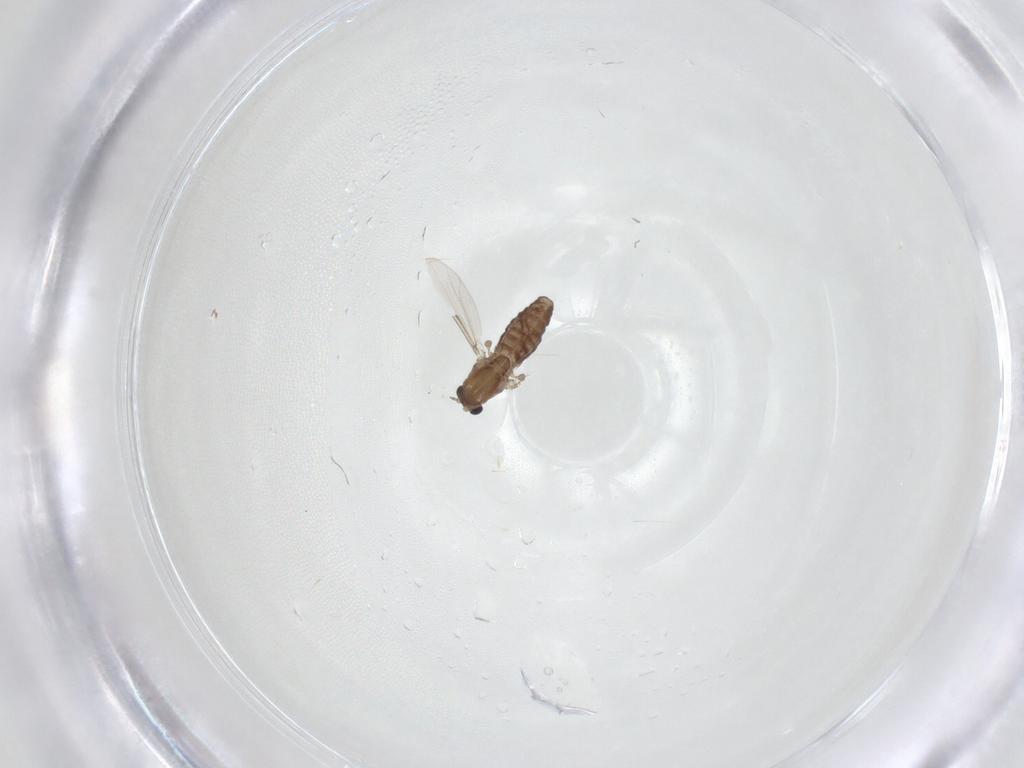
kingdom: Animalia
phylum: Arthropoda
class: Insecta
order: Diptera
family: Chironomidae
